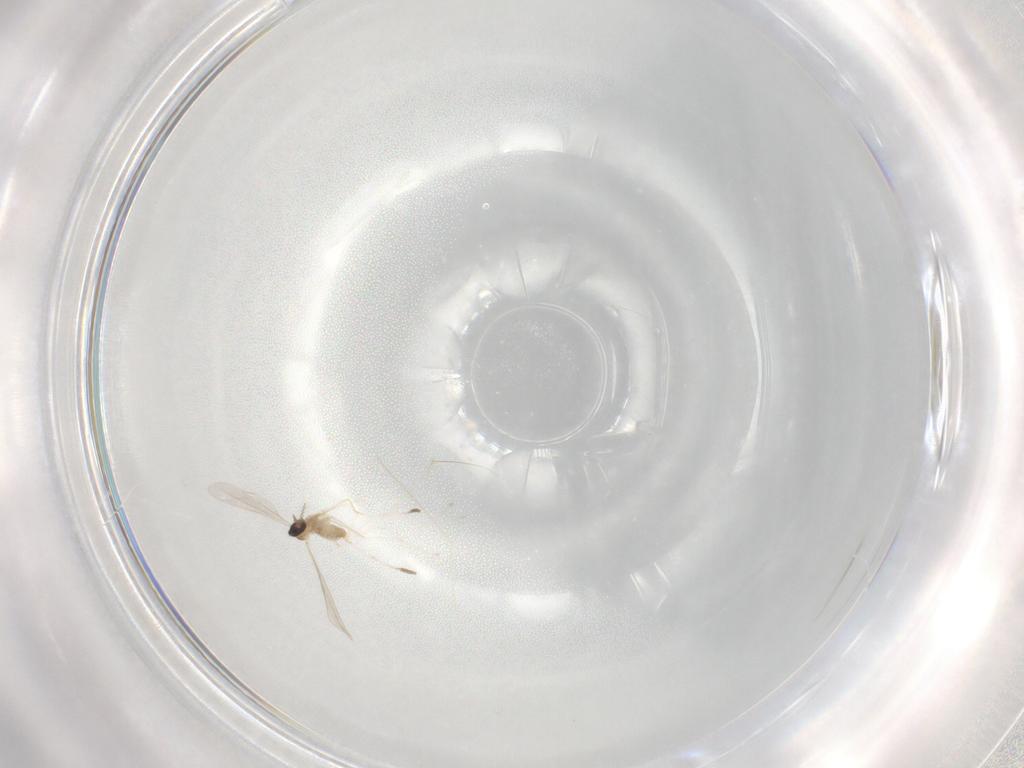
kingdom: Animalia
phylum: Arthropoda
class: Insecta
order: Diptera
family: Cecidomyiidae
